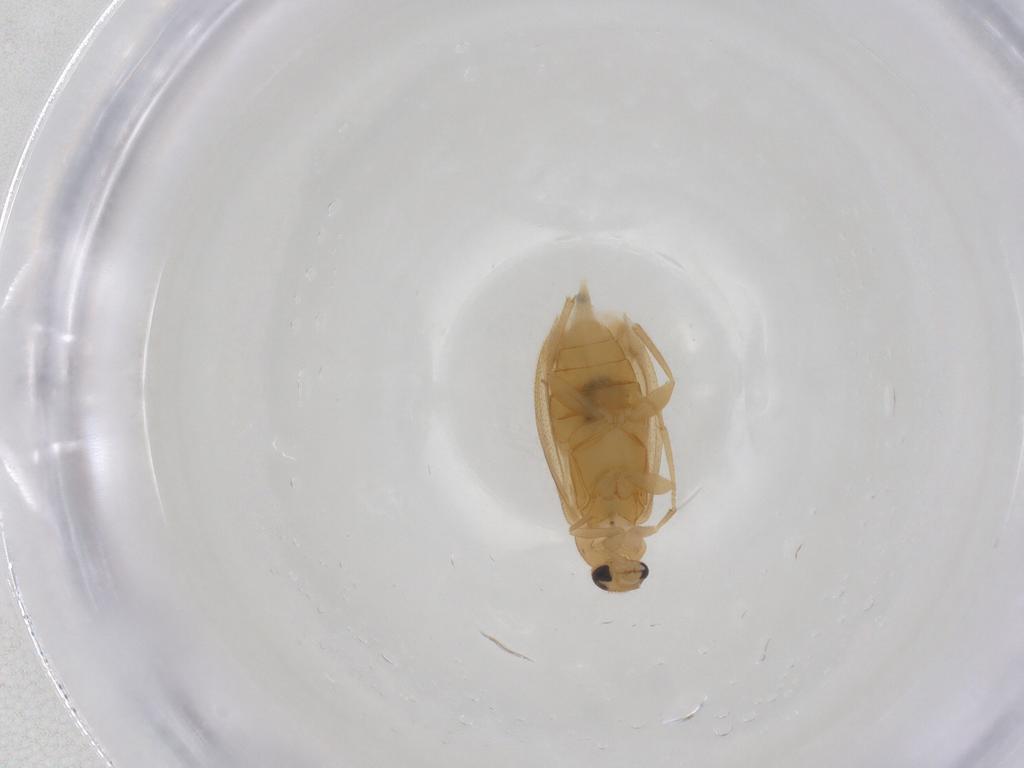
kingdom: Animalia
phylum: Arthropoda
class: Insecta
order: Coleoptera
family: Scraptiidae
